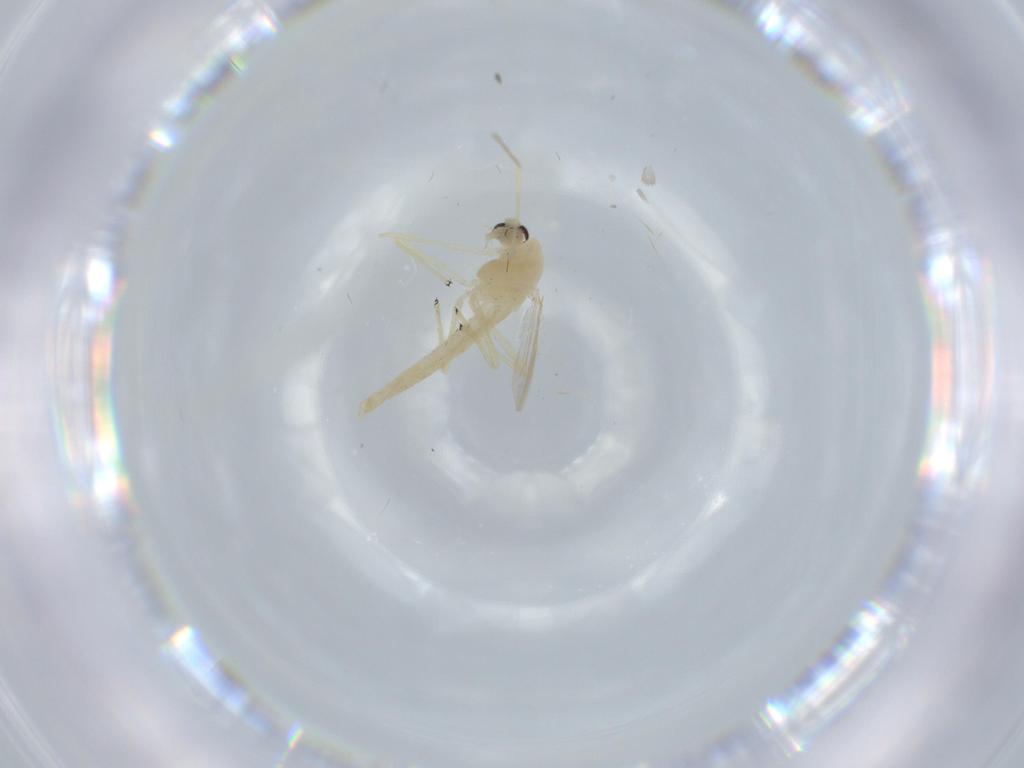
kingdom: Animalia
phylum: Arthropoda
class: Insecta
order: Diptera
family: Chironomidae
